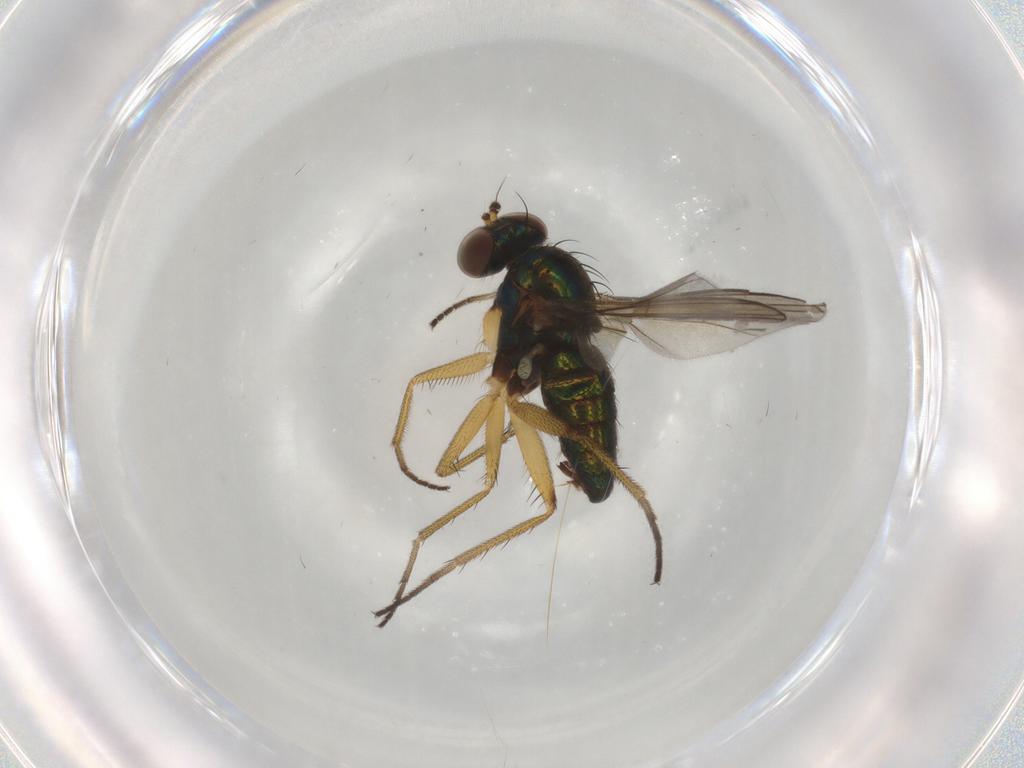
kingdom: Animalia
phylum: Arthropoda
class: Insecta
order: Diptera
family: Dolichopodidae
